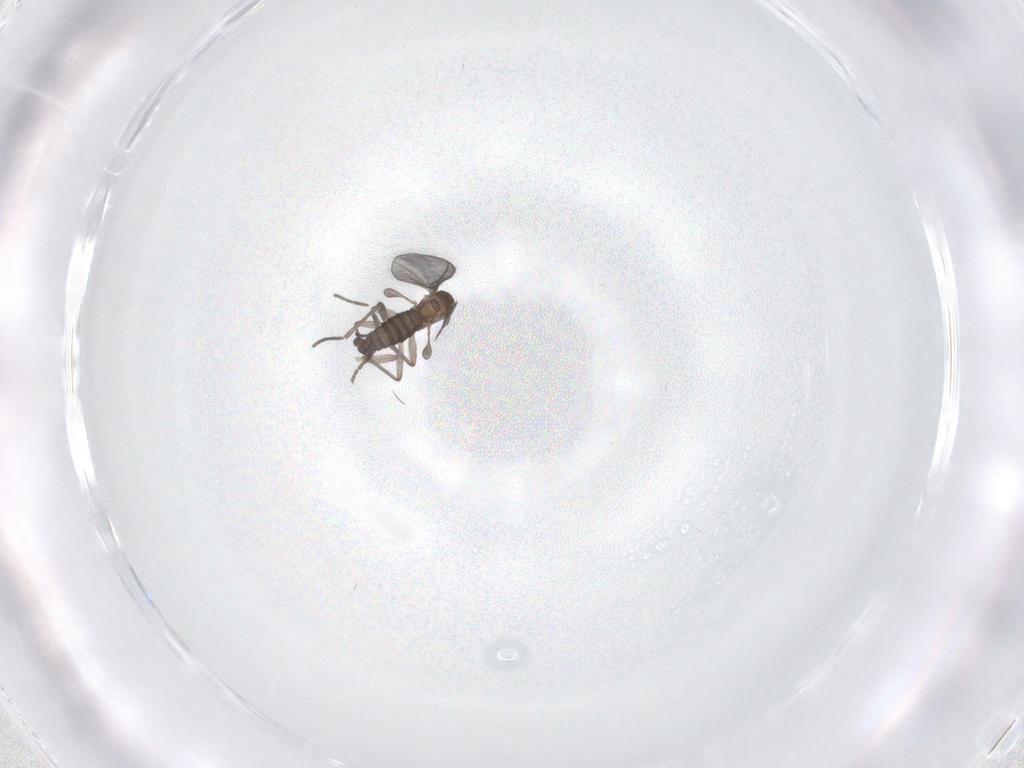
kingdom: Animalia
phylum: Arthropoda
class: Insecta
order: Diptera
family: Sciaridae
